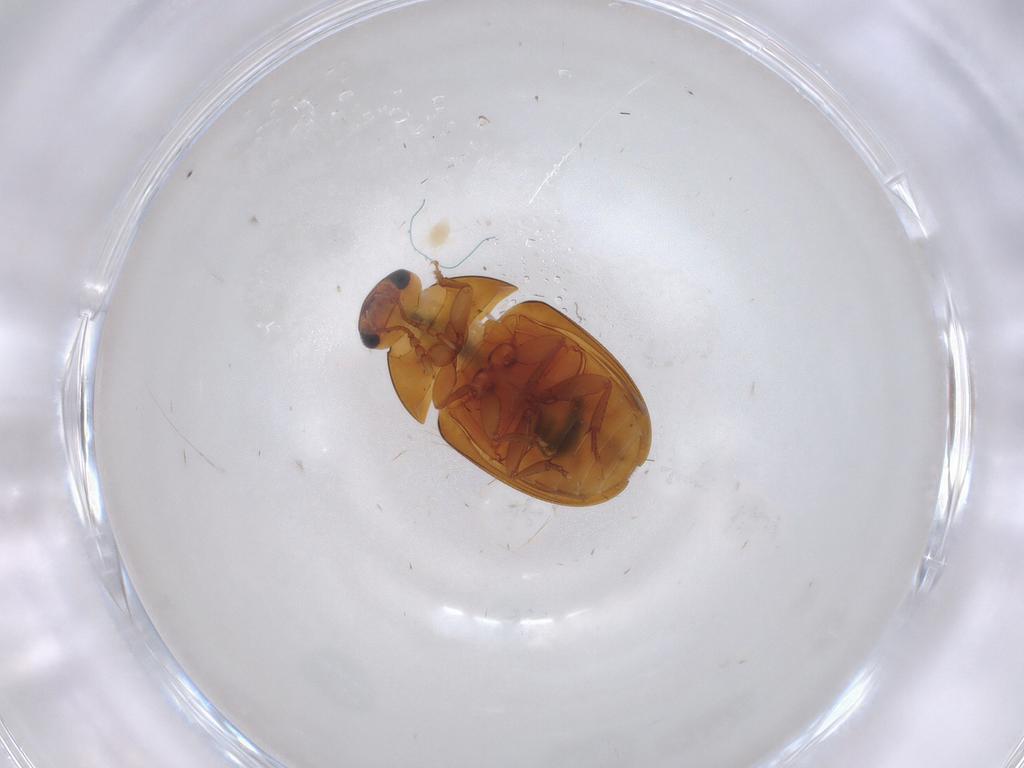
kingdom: Animalia
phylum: Arthropoda
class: Insecta
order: Coleoptera
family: Phalacridae
